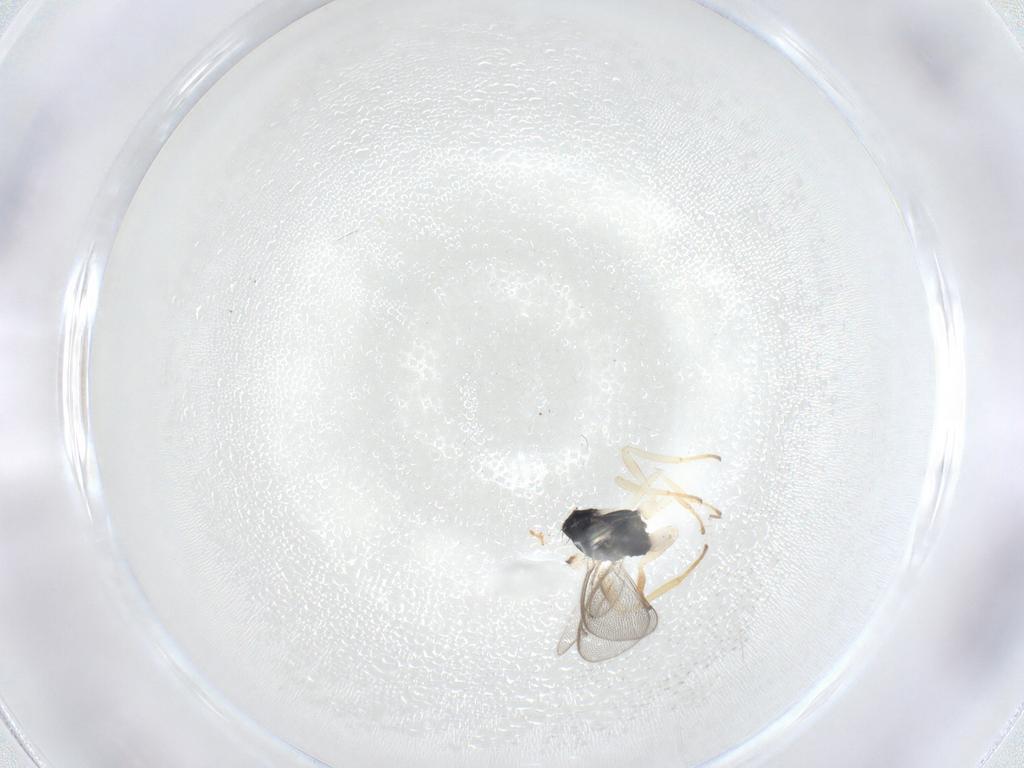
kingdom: Animalia
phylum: Arthropoda
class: Insecta
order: Hymenoptera
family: Eulophidae
